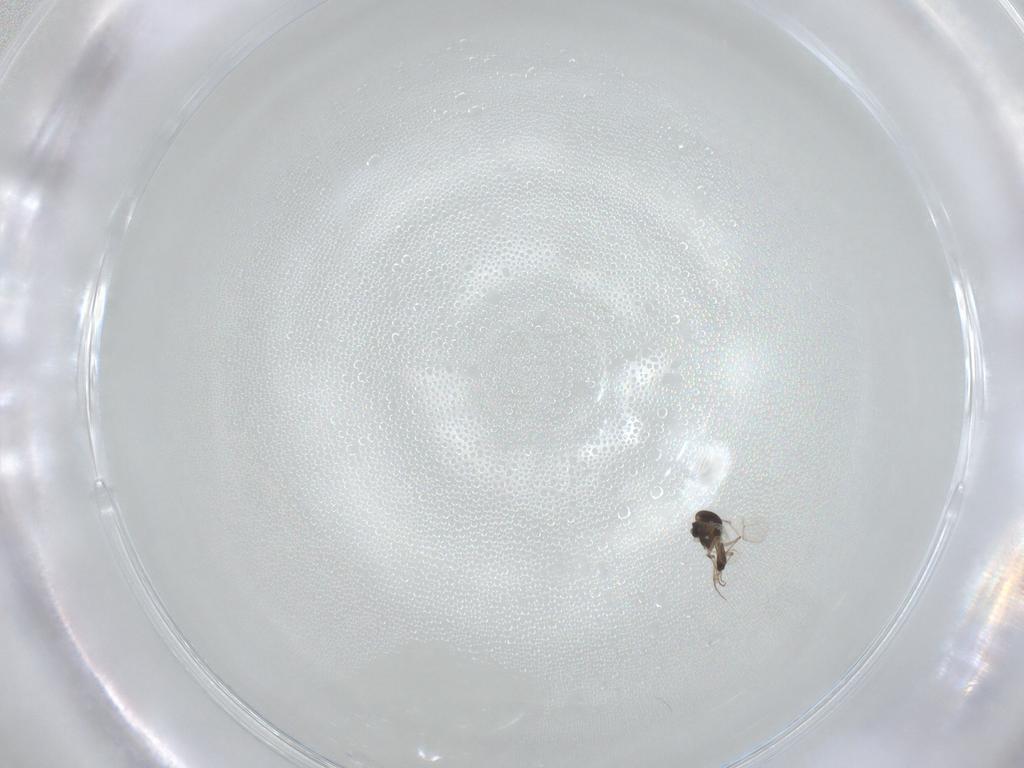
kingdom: Animalia
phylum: Arthropoda
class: Insecta
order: Diptera
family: Chironomidae
